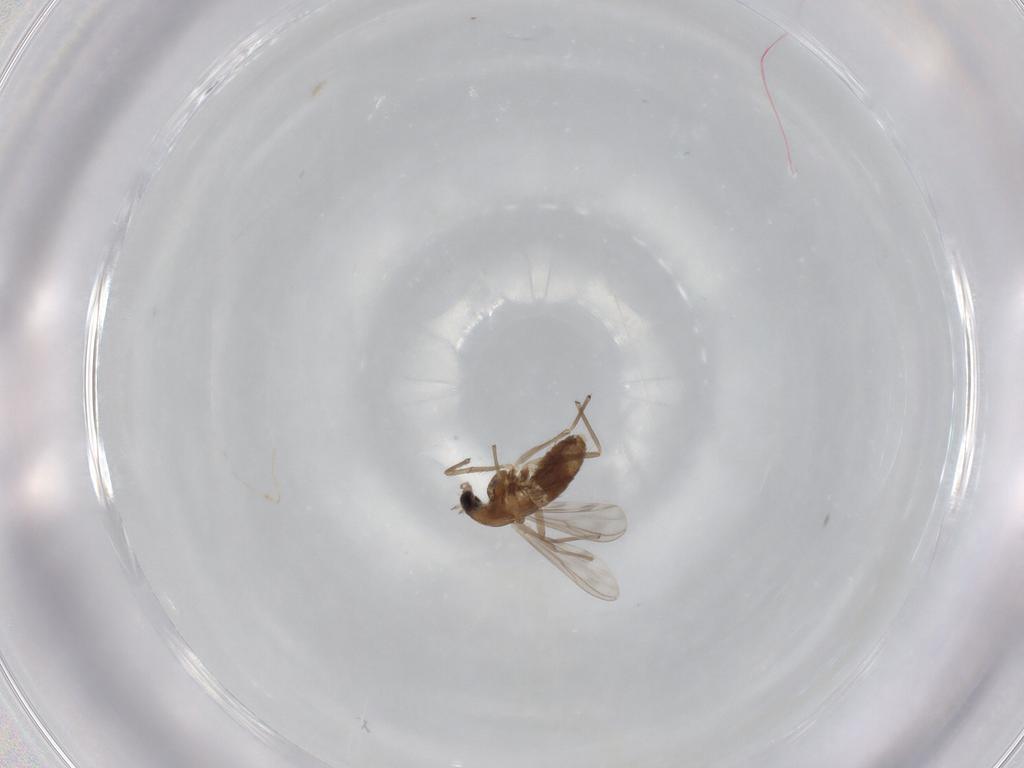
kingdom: Animalia
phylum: Arthropoda
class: Insecta
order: Diptera
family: Chironomidae
